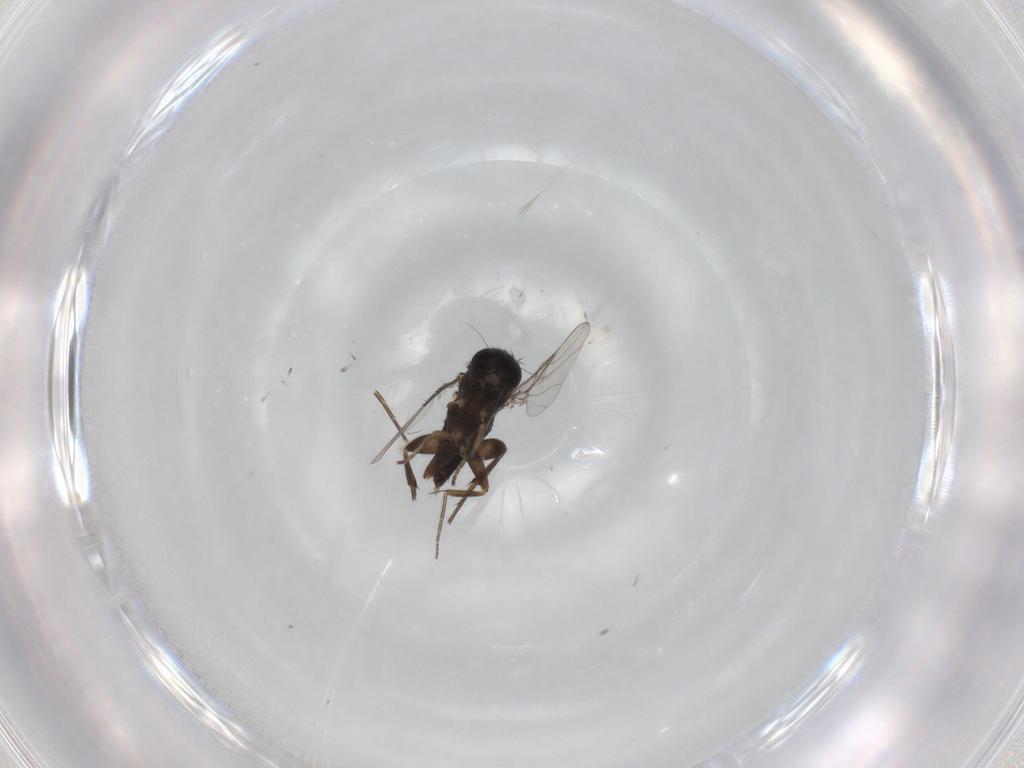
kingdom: Animalia
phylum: Arthropoda
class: Insecta
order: Diptera
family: Phoridae
